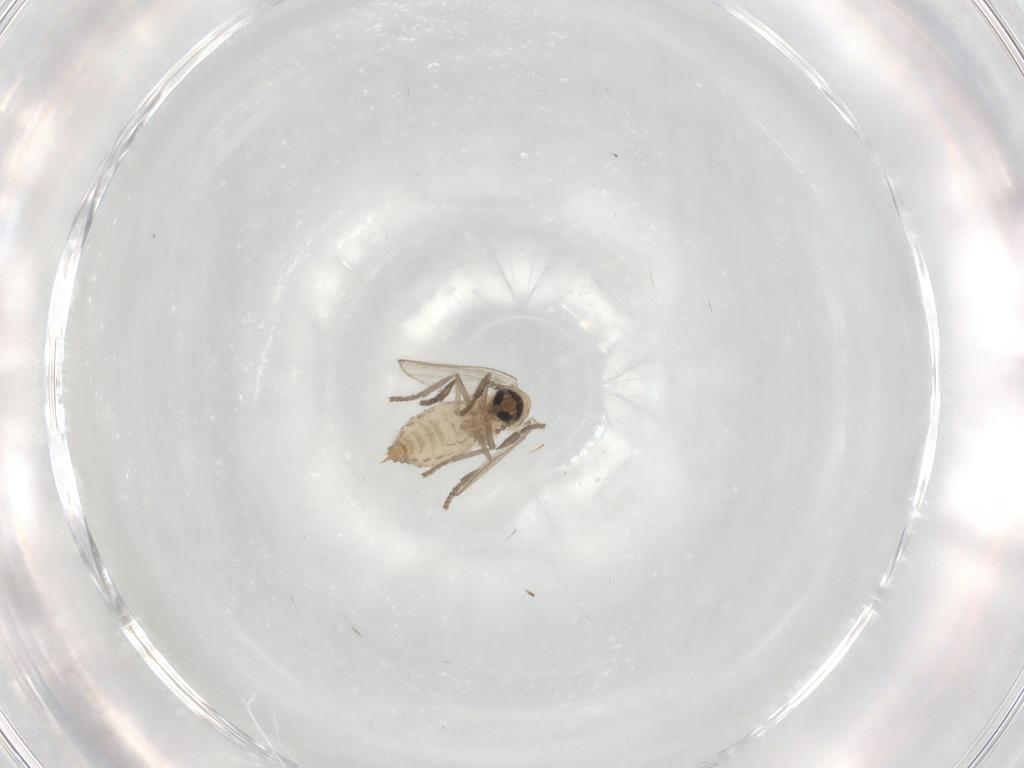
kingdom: Animalia
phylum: Arthropoda
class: Insecta
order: Diptera
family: Psychodidae
